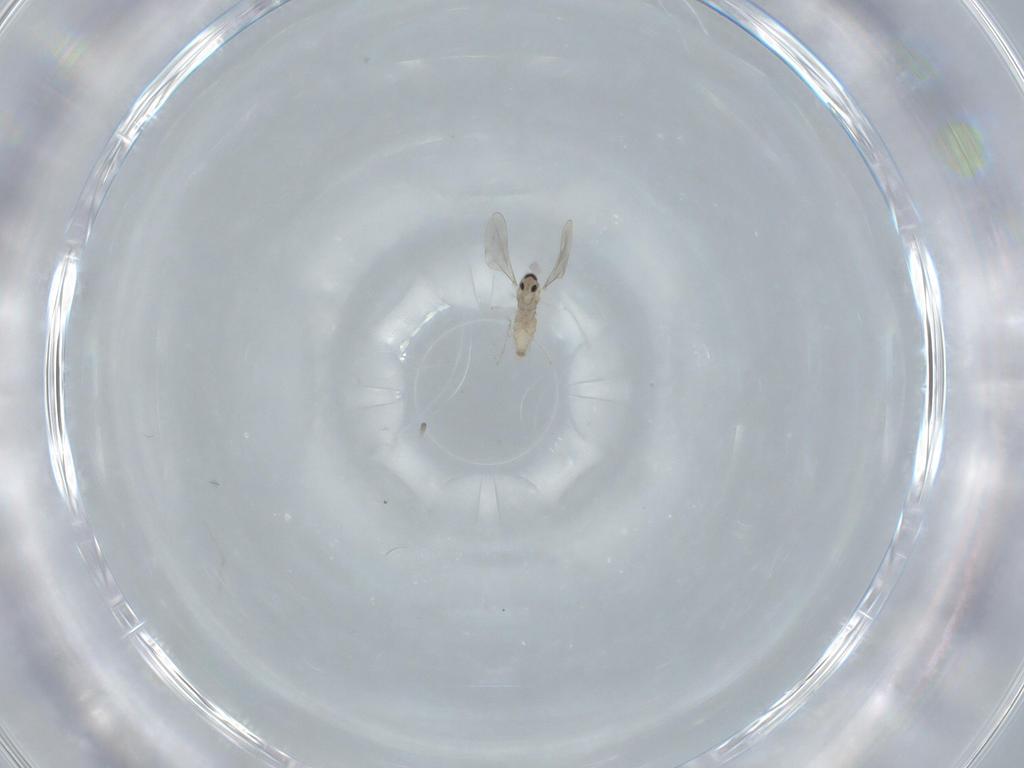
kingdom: Animalia
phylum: Arthropoda
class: Insecta
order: Diptera
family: Cecidomyiidae
